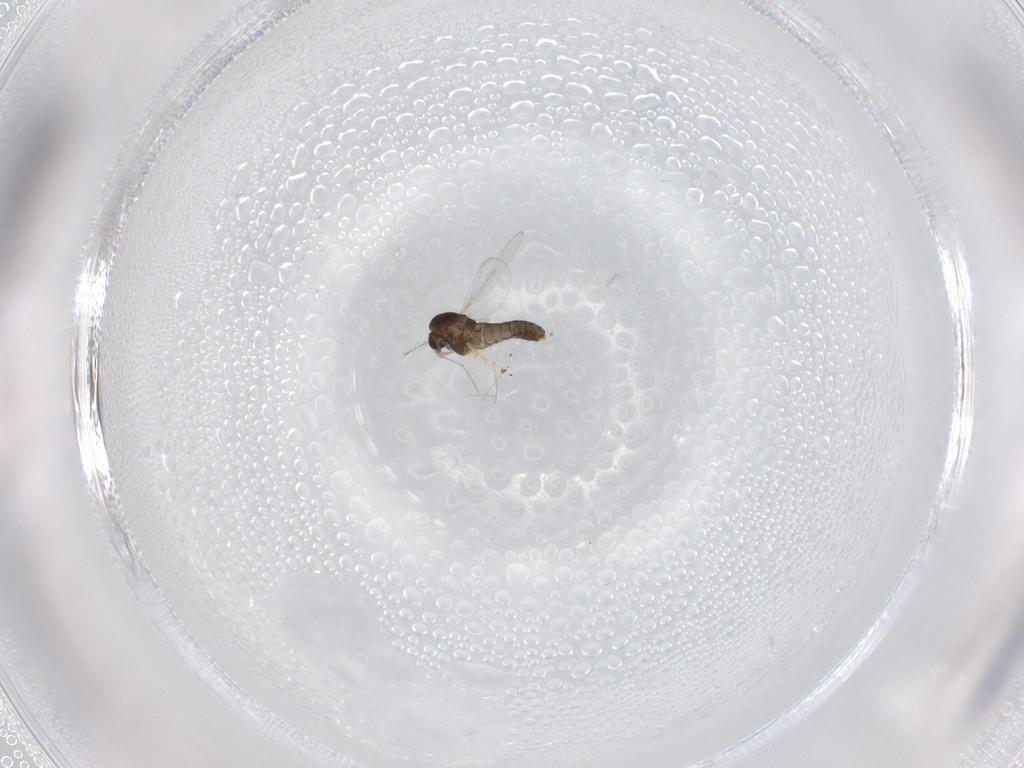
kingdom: Animalia
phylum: Arthropoda
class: Insecta
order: Diptera
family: Chironomidae
